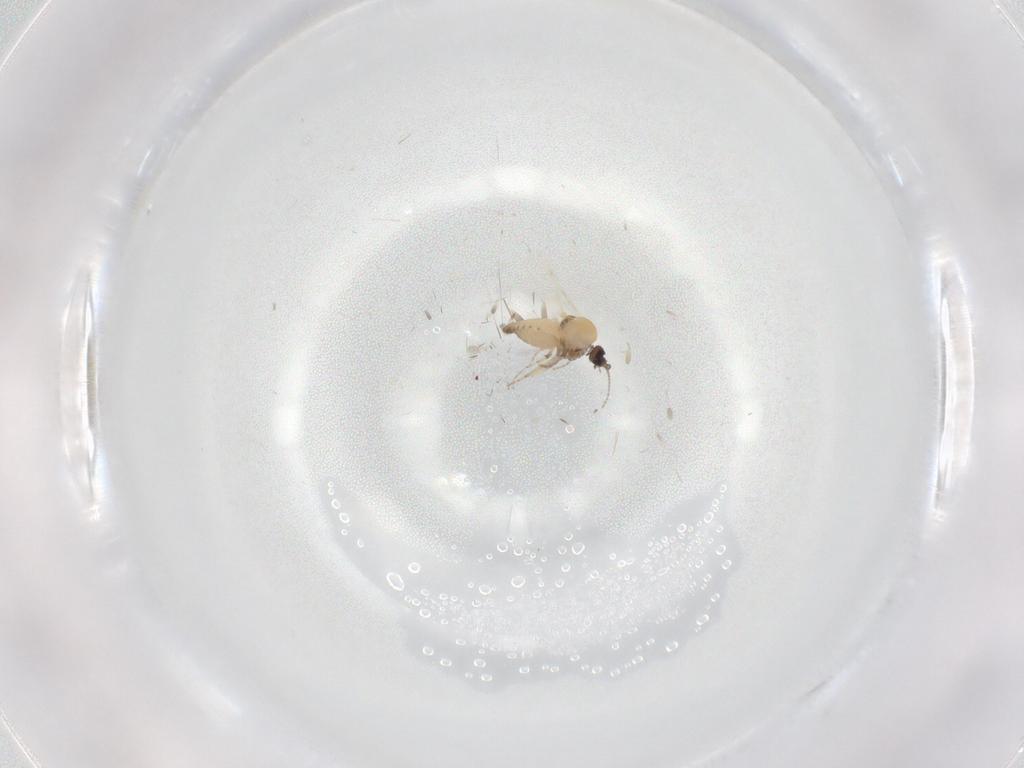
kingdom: Animalia
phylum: Arthropoda
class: Insecta
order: Diptera
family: Ceratopogonidae
